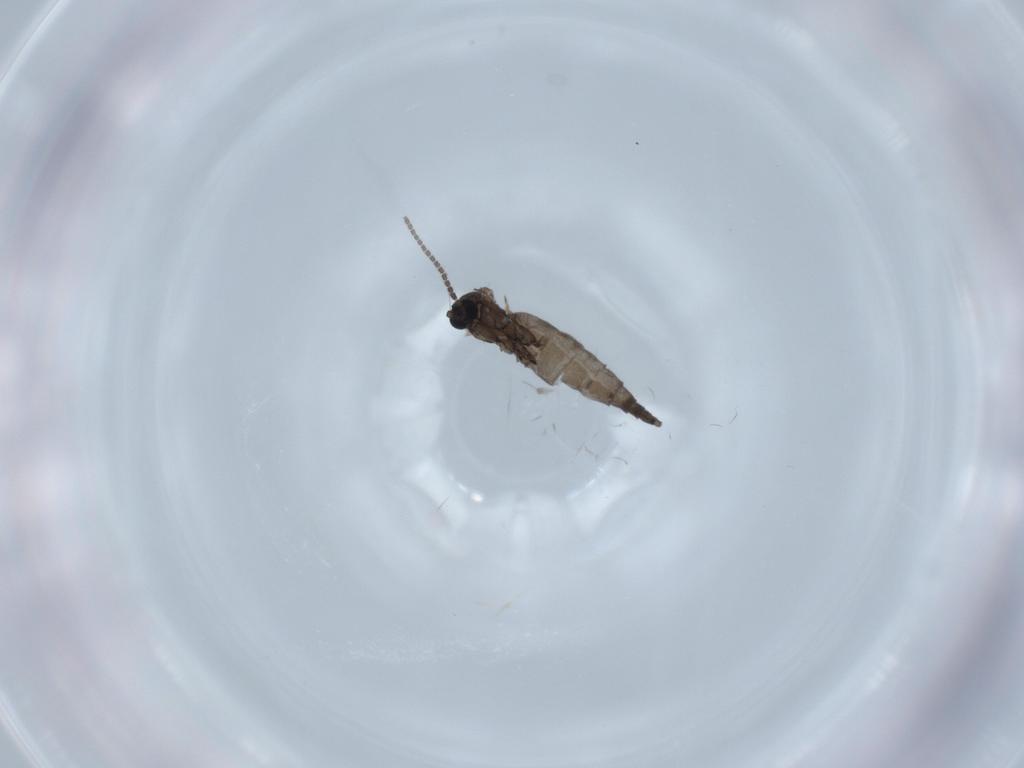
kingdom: Animalia
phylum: Arthropoda
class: Insecta
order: Diptera
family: Sciaridae
